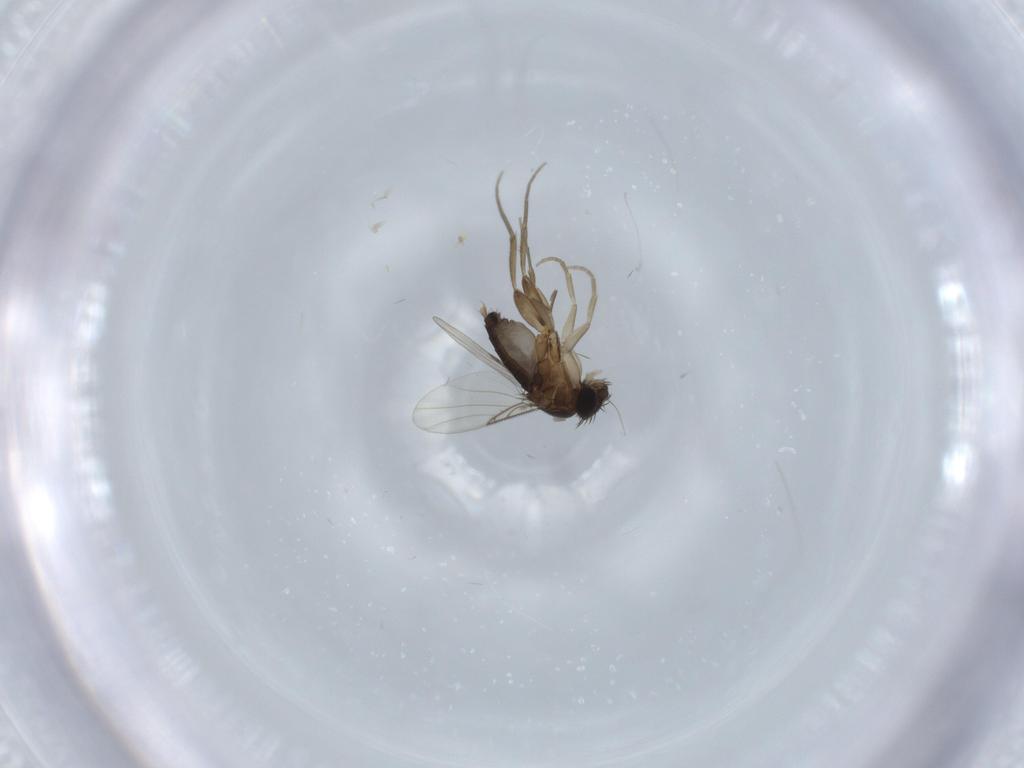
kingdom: Animalia
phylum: Arthropoda
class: Insecta
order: Diptera
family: Phoridae
